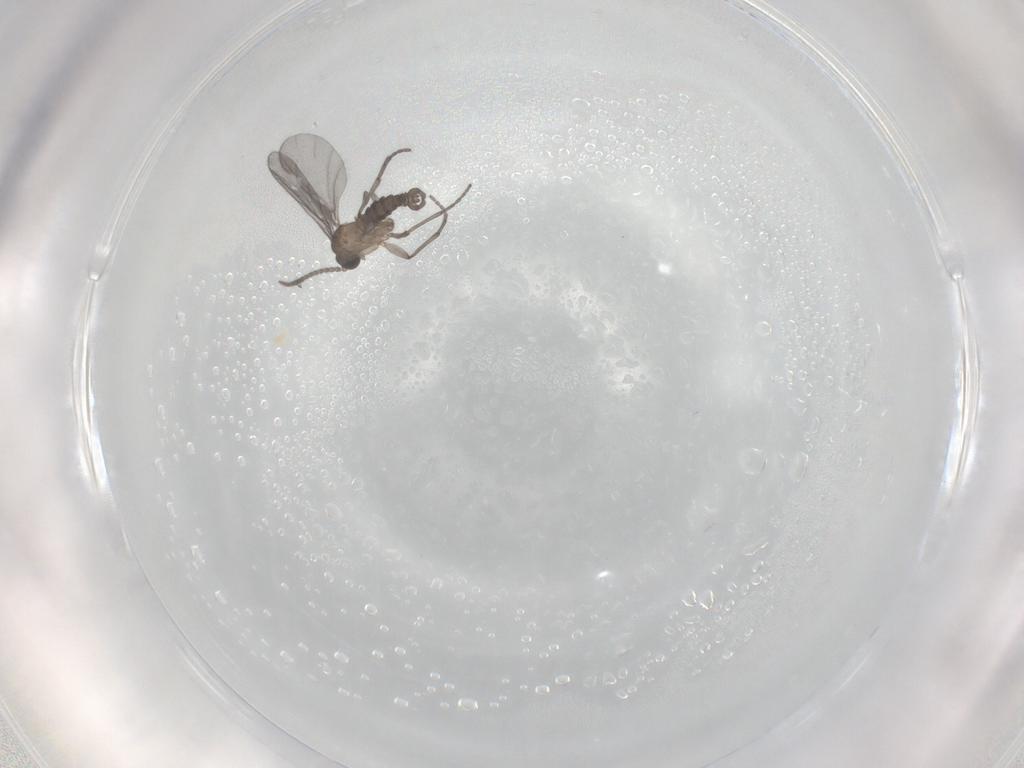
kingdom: Animalia
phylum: Arthropoda
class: Insecta
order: Diptera
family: Sciaridae
